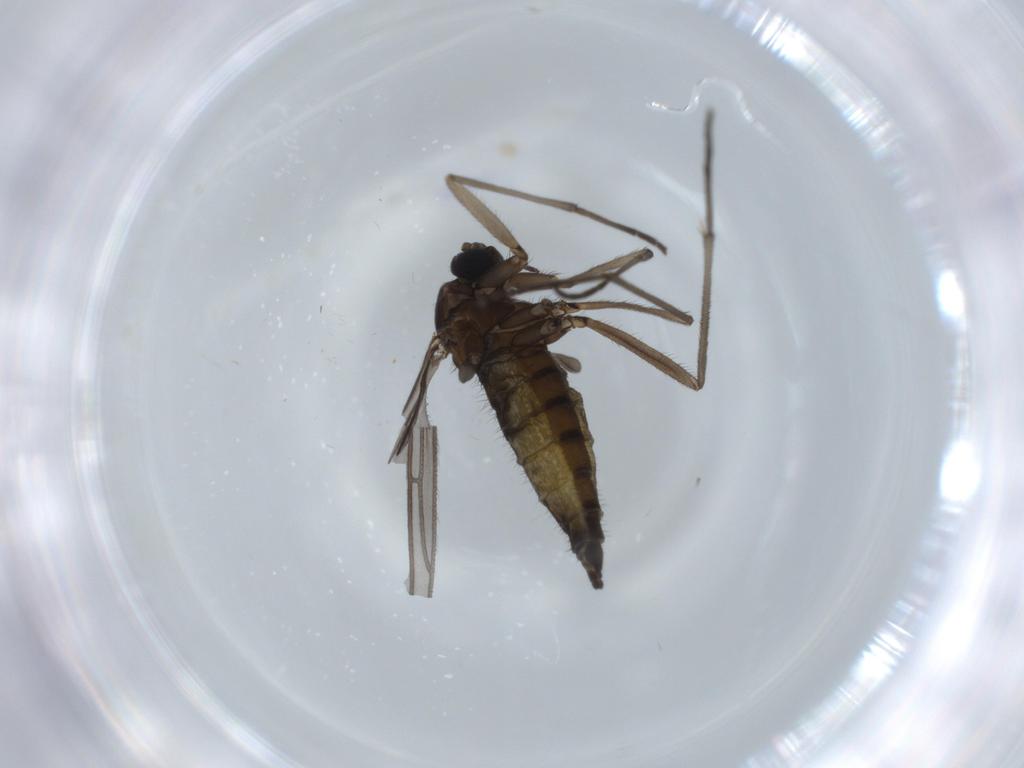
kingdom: Animalia
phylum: Arthropoda
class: Insecta
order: Diptera
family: Sciaridae
